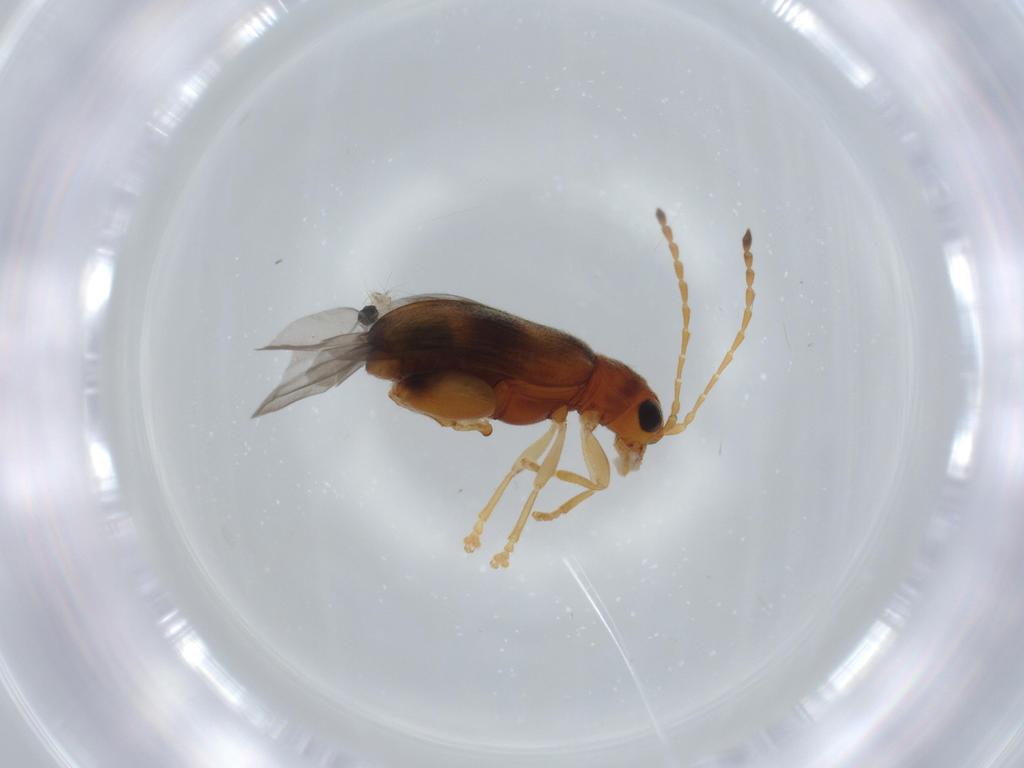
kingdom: Animalia
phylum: Arthropoda
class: Insecta
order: Coleoptera
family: Chrysomelidae
